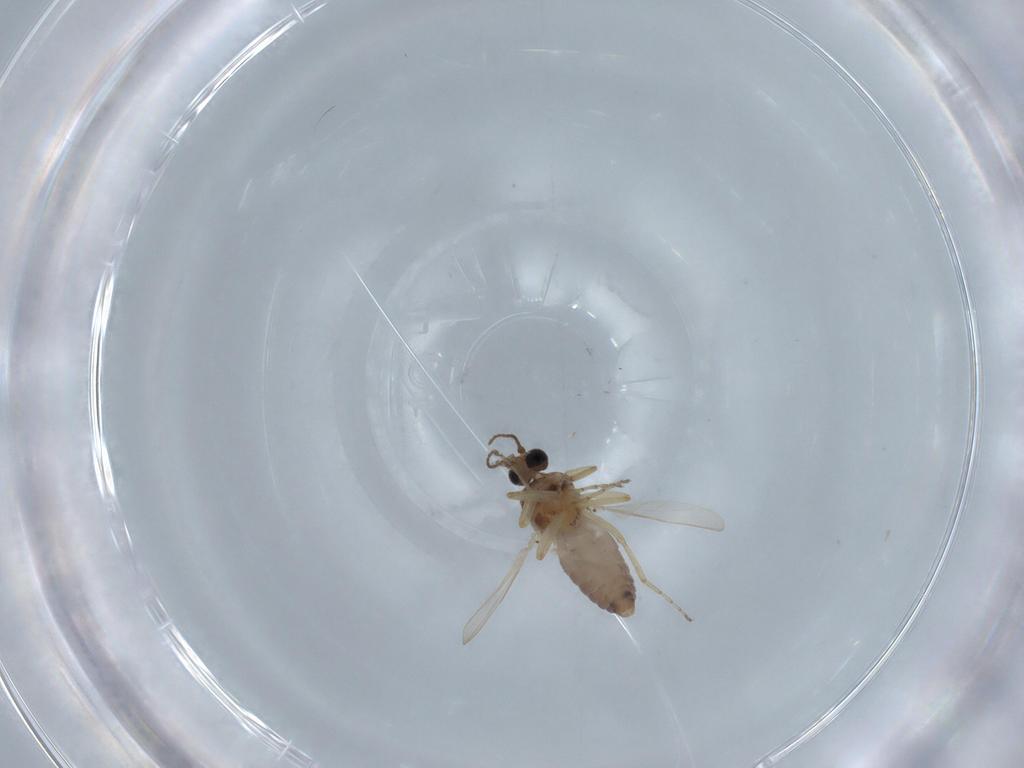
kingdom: Animalia
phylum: Arthropoda
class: Insecta
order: Diptera
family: Ceratopogonidae
